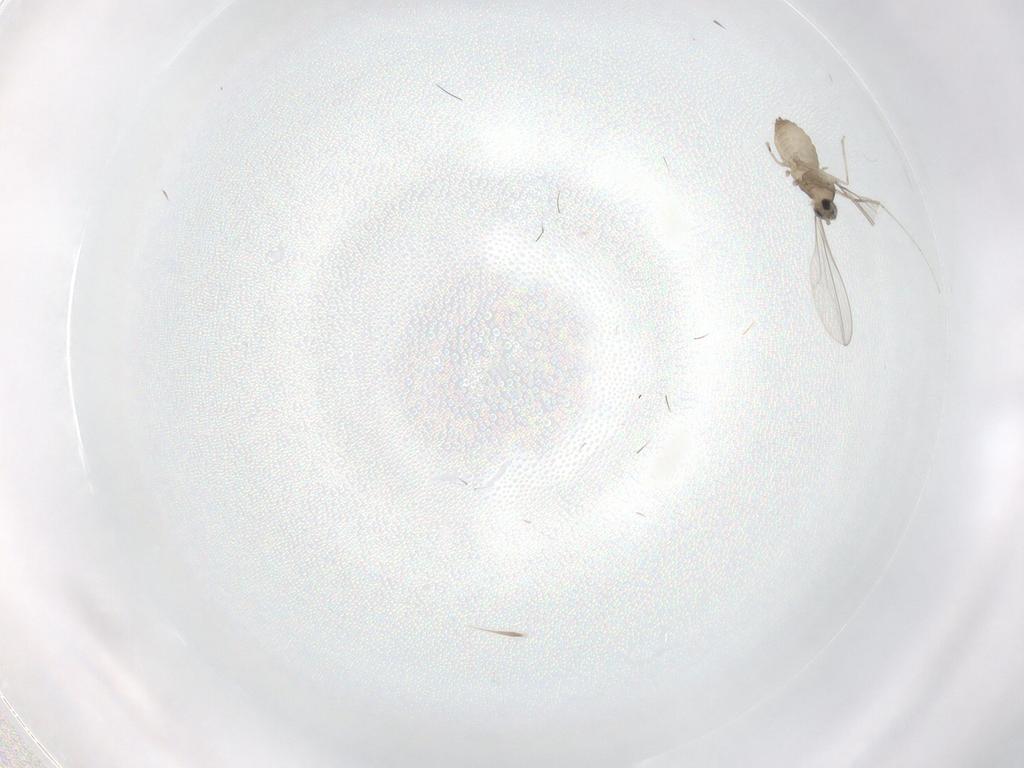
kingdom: Animalia
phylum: Arthropoda
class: Insecta
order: Diptera
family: Cecidomyiidae
